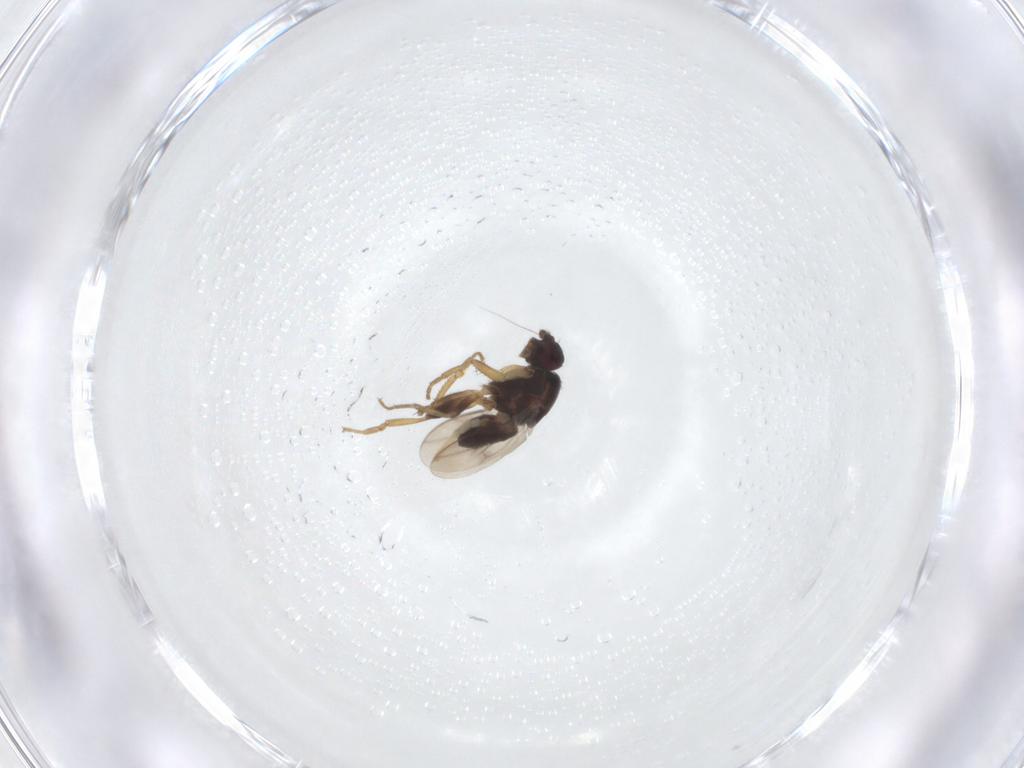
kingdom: Animalia
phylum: Arthropoda
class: Insecta
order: Diptera
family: Sphaeroceridae
